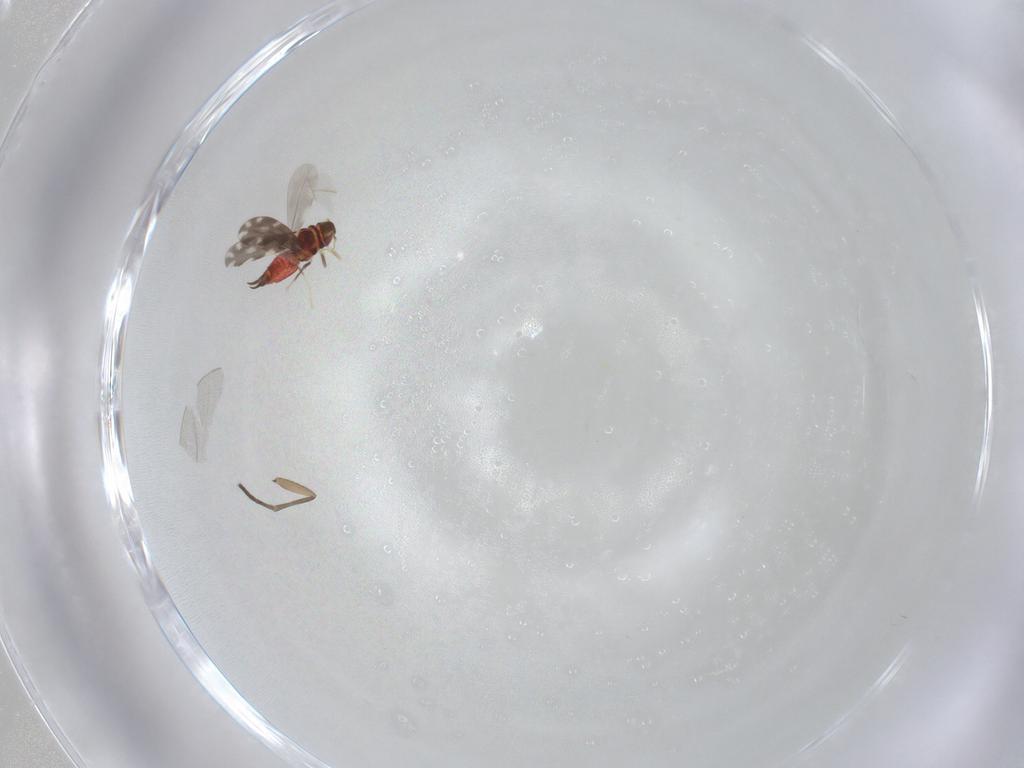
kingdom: Animalia
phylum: Arthropoda
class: Insecta
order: Hemiptera
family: Aleyrodidae
